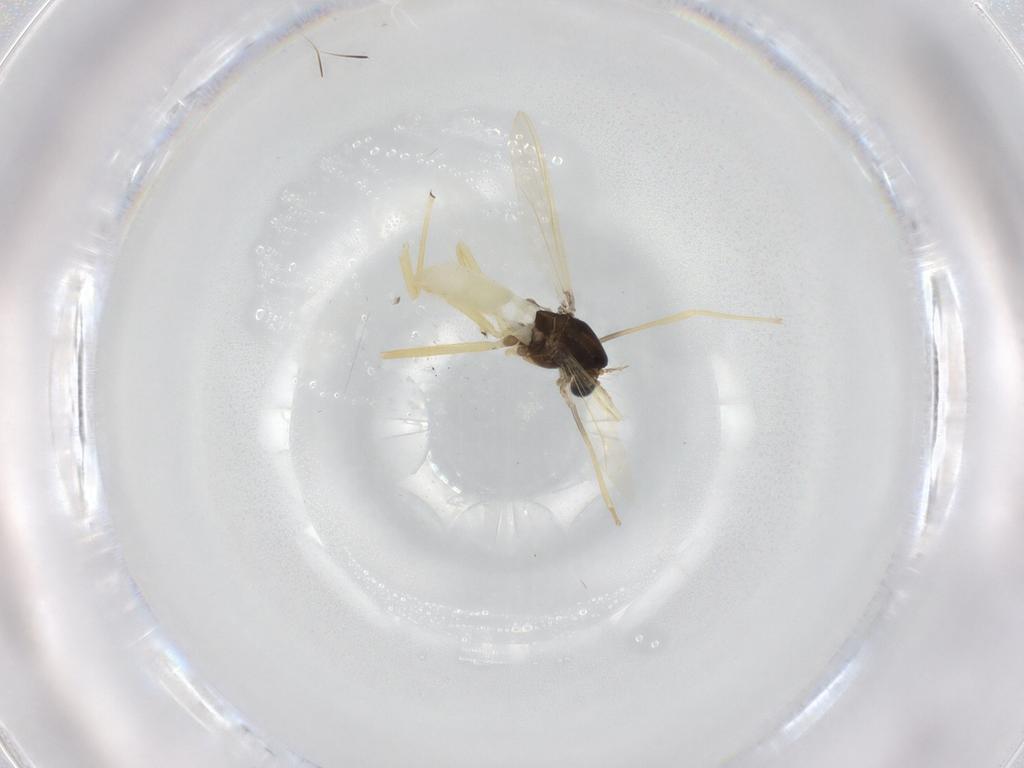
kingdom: Animalia
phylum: Arthropoda
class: Insecta
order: Diptera
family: Chironomidae
